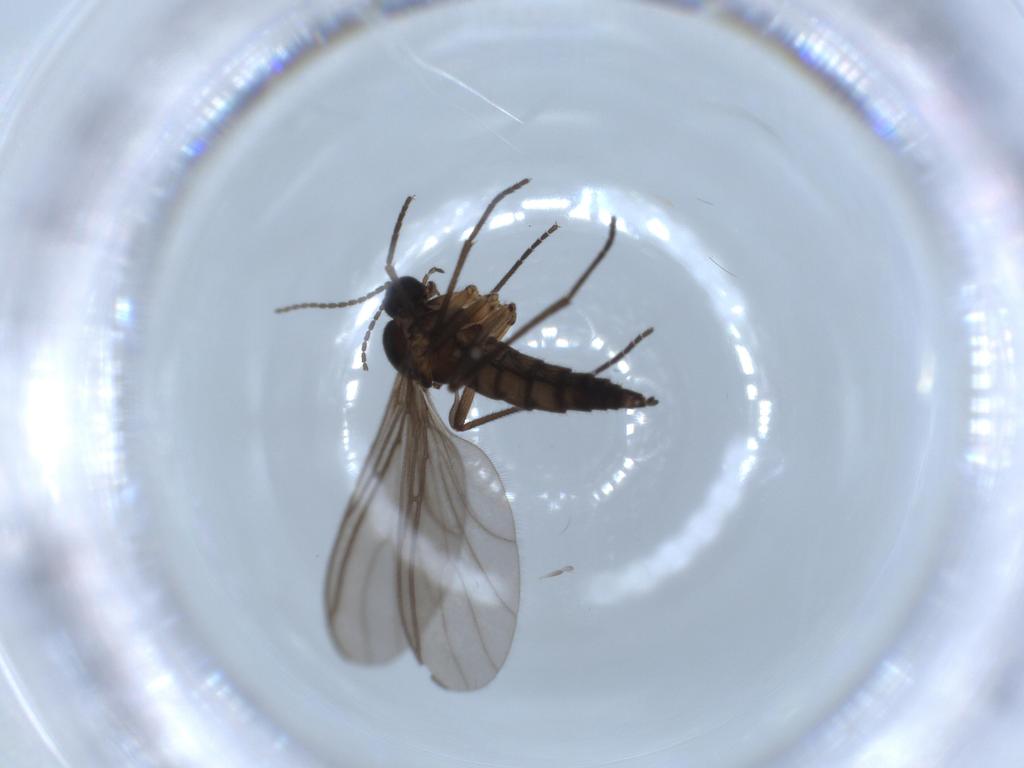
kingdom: Animalia
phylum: Arthropoda
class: Insecta
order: Diptera
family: Sciaridae
